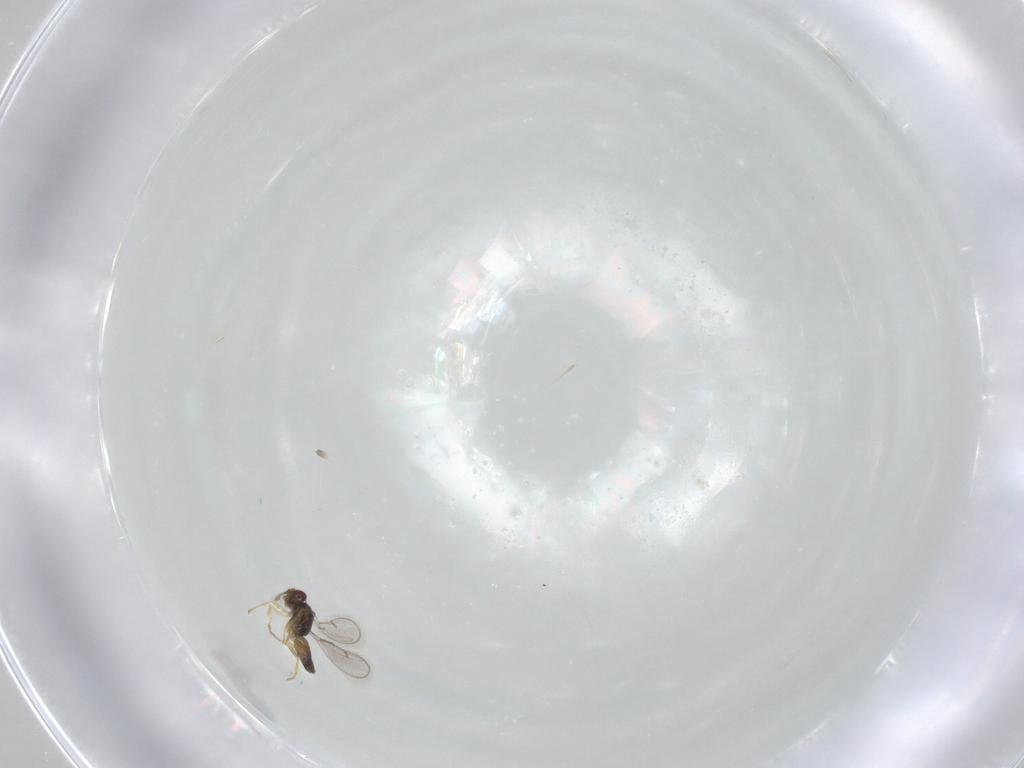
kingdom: Animalia
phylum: Arthropoda
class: Insecta
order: Hymenoptera
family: Eulophidae
